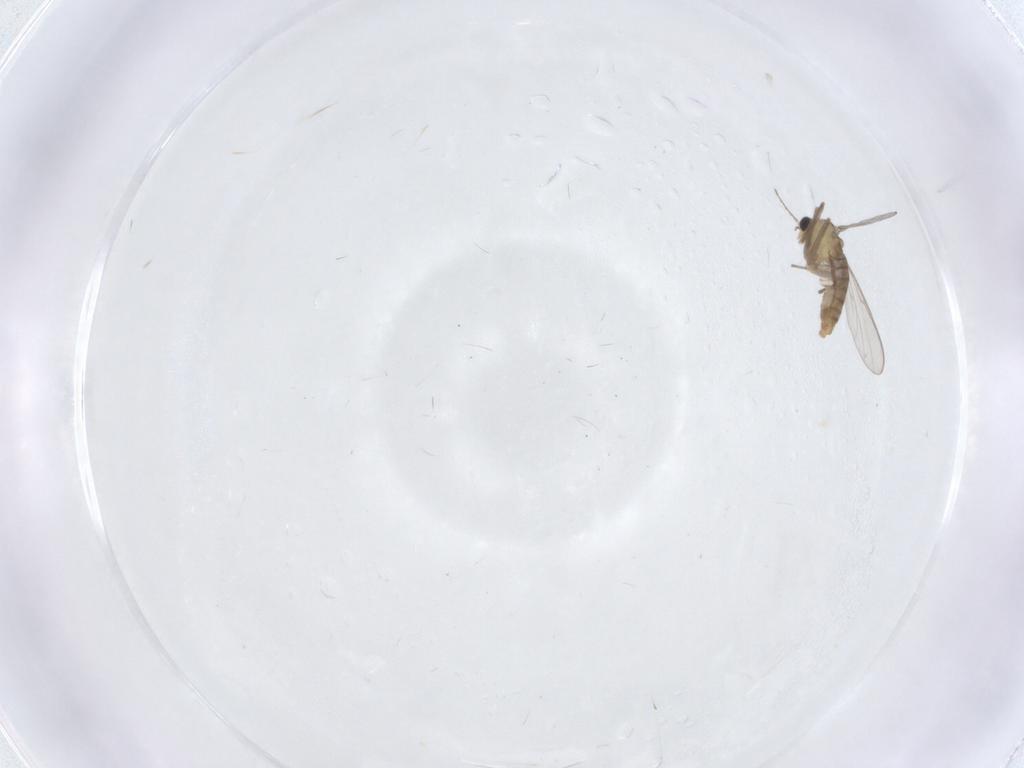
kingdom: Animalia
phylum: Arthropoda
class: Insecta
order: Diptera
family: Chironomidae
